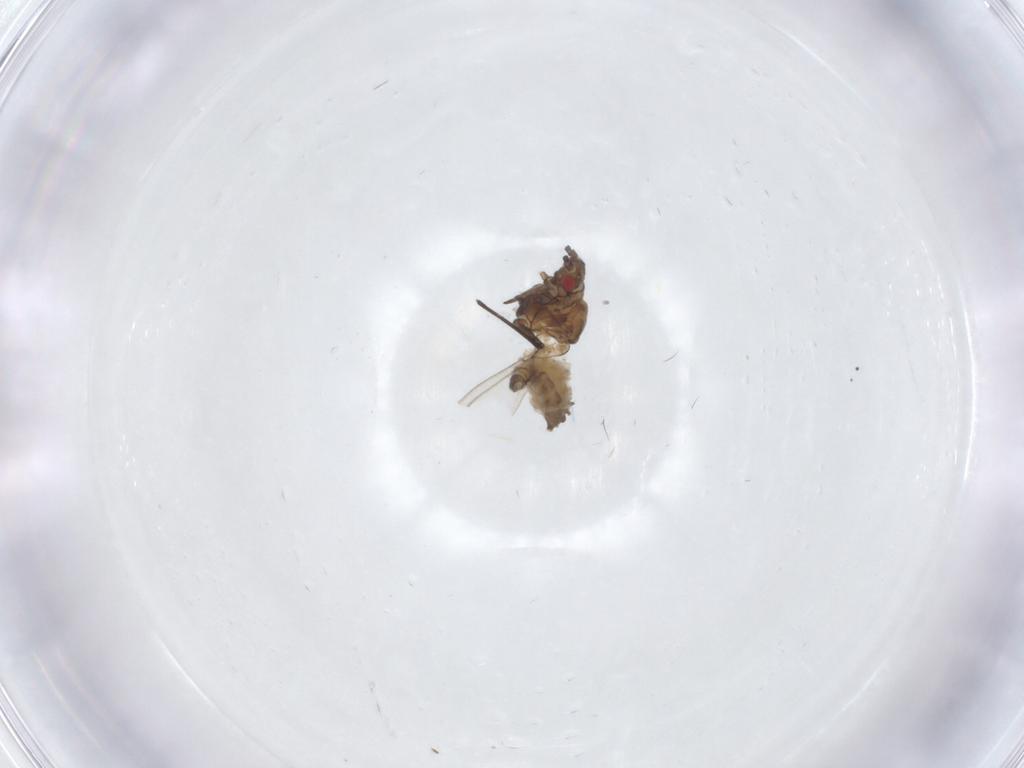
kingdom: Animalia
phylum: Arthropoda
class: Insecta
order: Hemiptera
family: Aphididae
